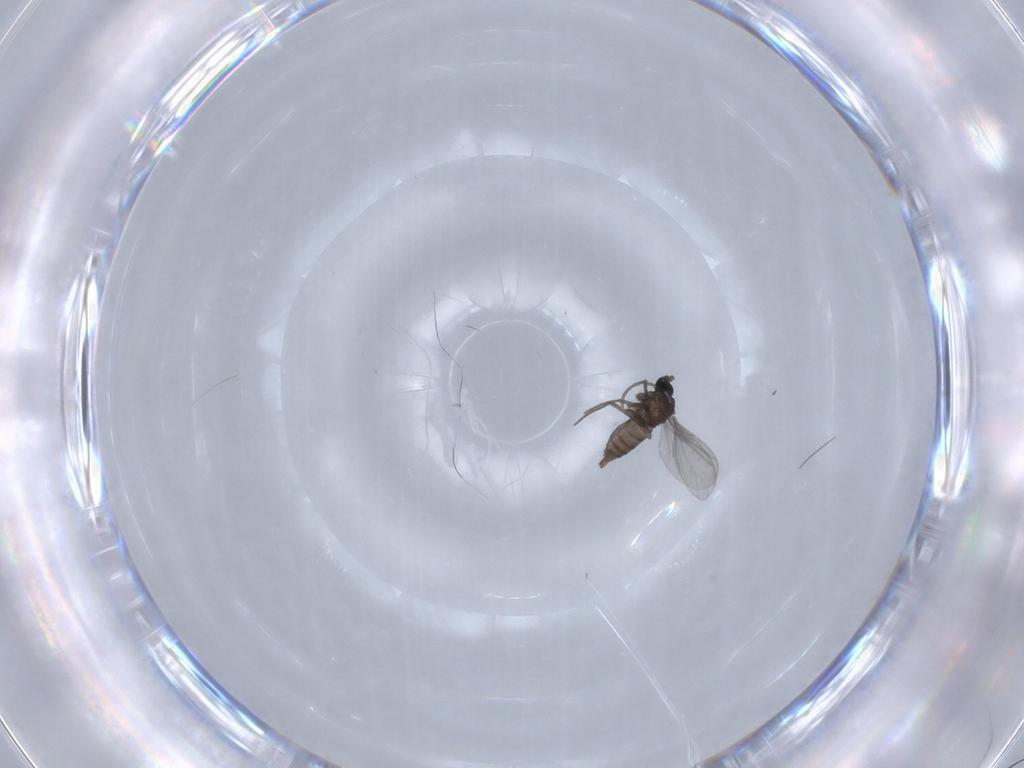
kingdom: Animalia
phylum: Arthropoda
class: Insecta
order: Diptera
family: Sciaridae
